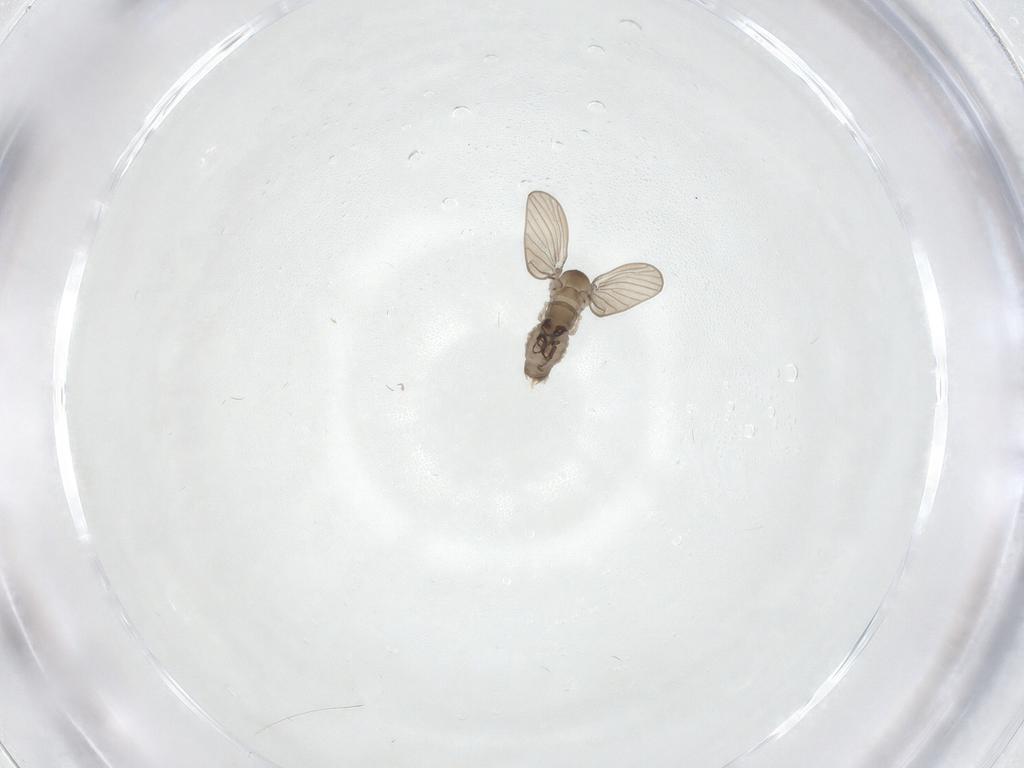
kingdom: Animalia
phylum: Arthropoda
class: Insecta
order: Diptera
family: Psychodidae
